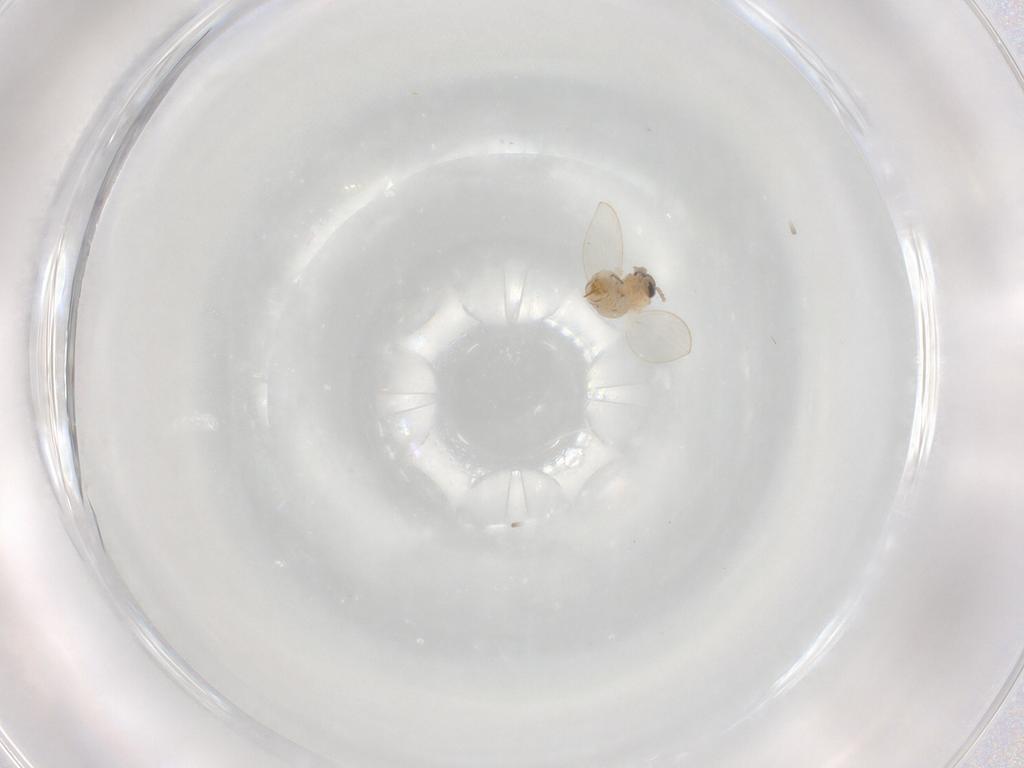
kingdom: Animalia
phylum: Arthropoda
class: Insecta
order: Diptera
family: Psychodidae
